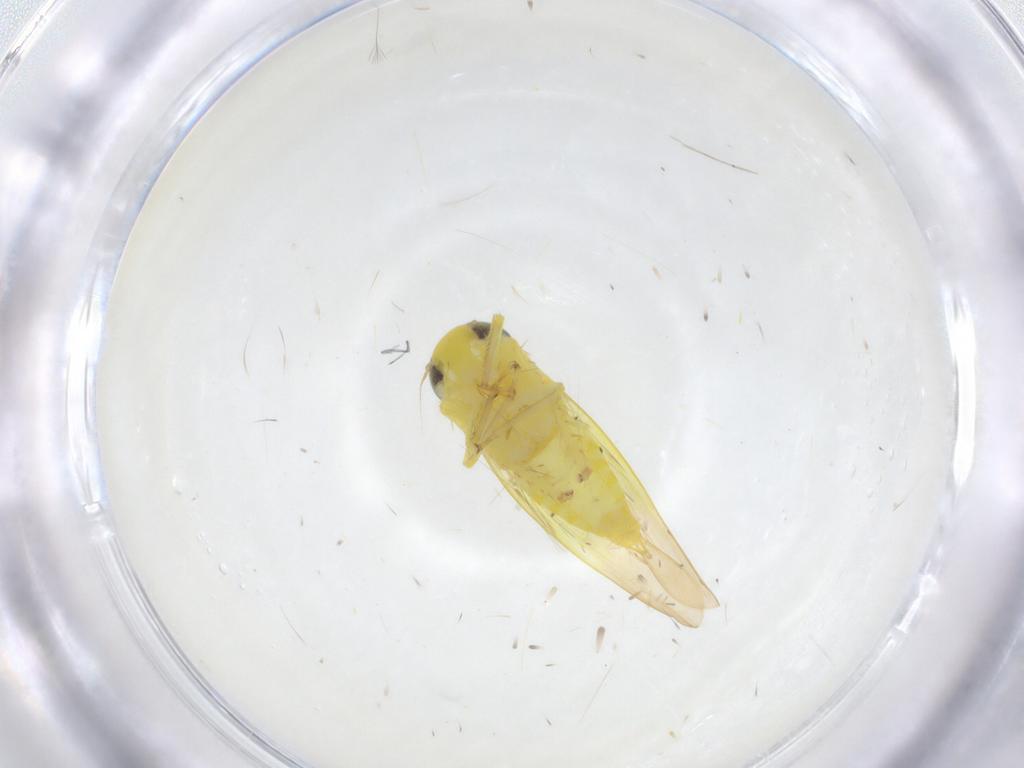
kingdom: Animalia
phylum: Arthropoda
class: Insecta
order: Hemiptera
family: Cicadellidae
